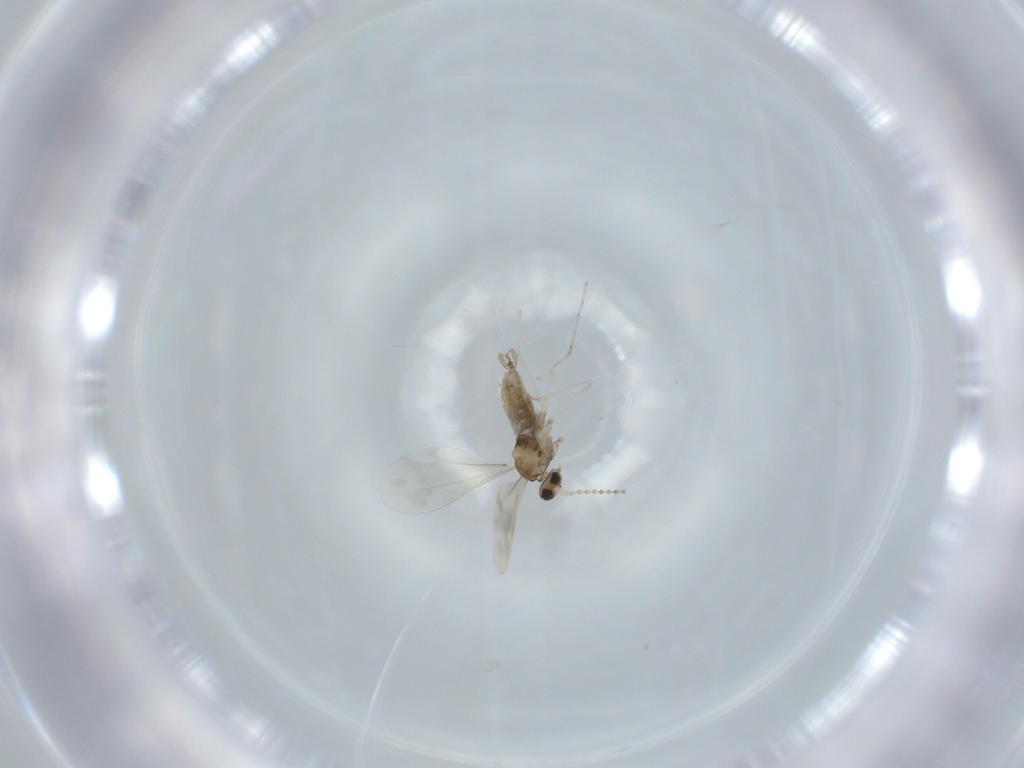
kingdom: Animalia
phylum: Arthropoda
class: Insecta
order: Diptera
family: Cecidomyiidae
